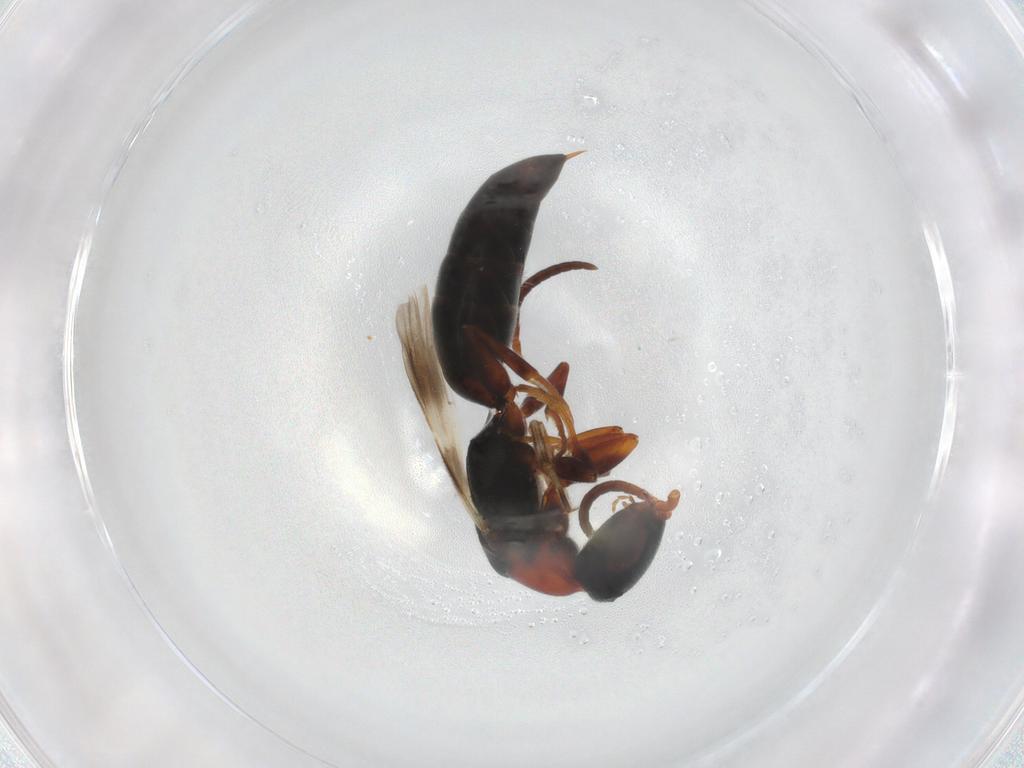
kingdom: Animalia
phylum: Arthropoda
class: Insecta
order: Hymenoptera
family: Bethylidae
